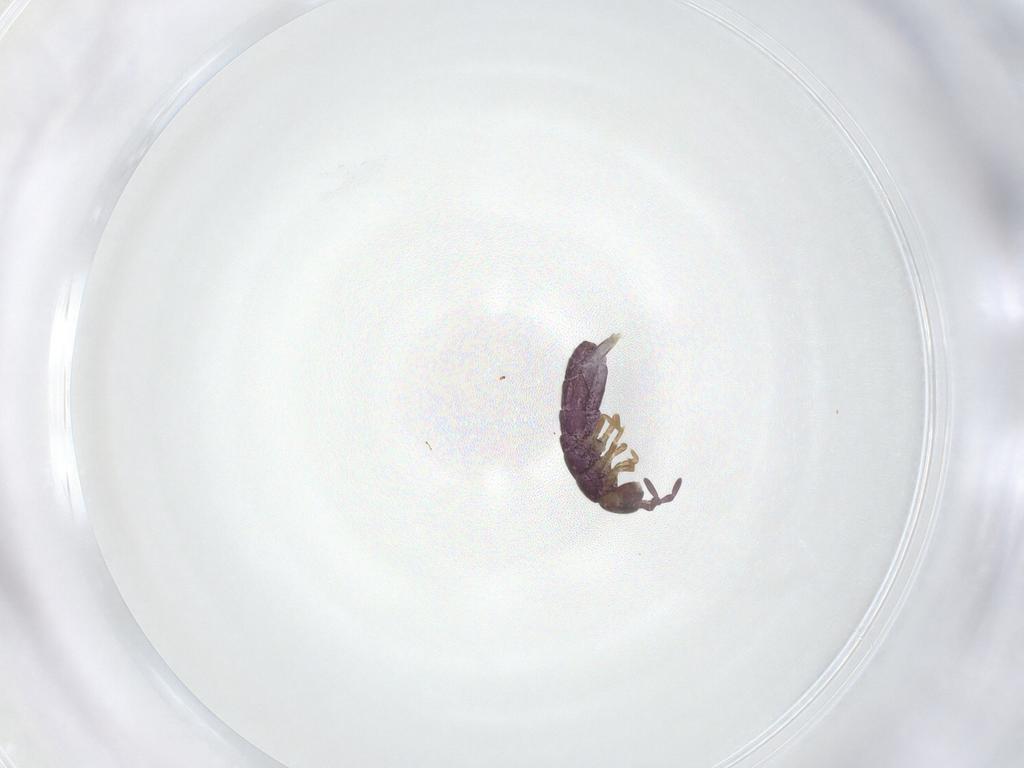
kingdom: Animalia
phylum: Arthropoda
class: Collembola
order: Entomobryomorpha
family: Isotomidae
